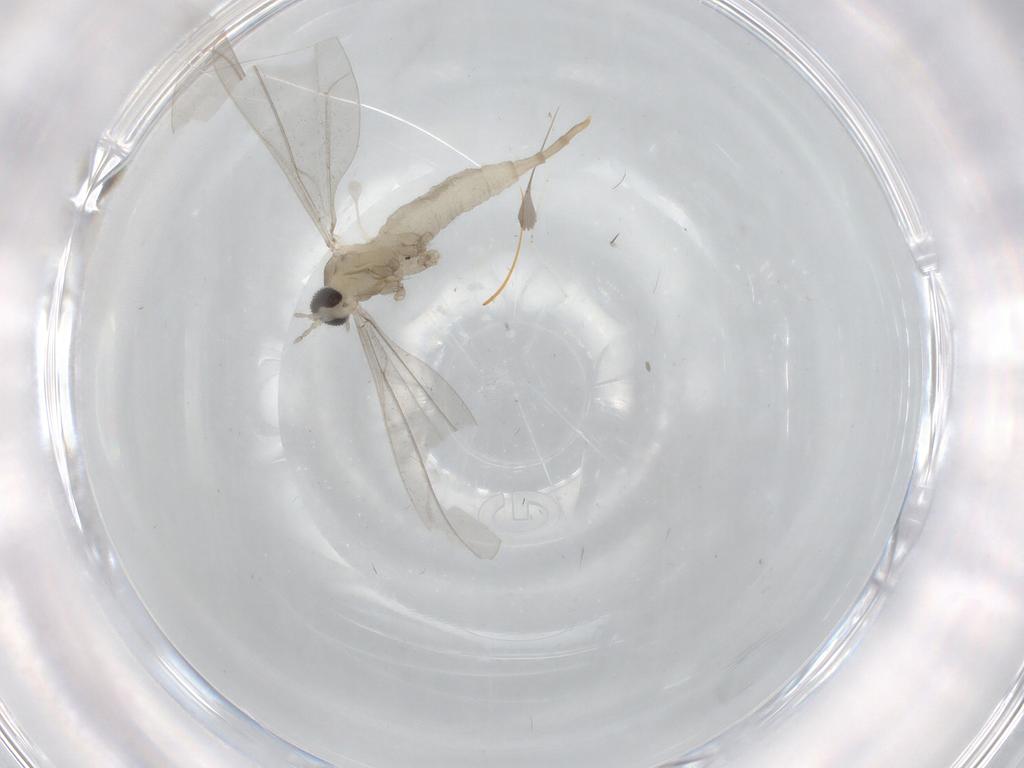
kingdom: Animalia
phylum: Arthropoda
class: Insecta
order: Diptera
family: Cecidomyiidae
